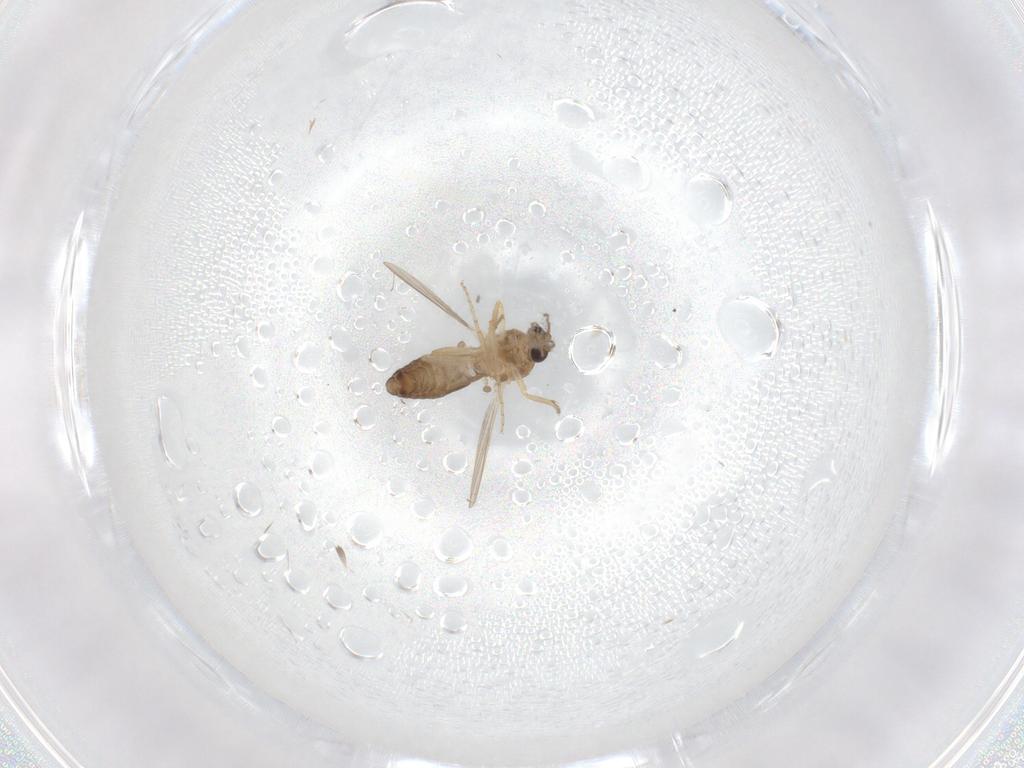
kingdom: Animalia
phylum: Arthropoda
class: Insecta
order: Diptera
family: Ceratopogonidae
